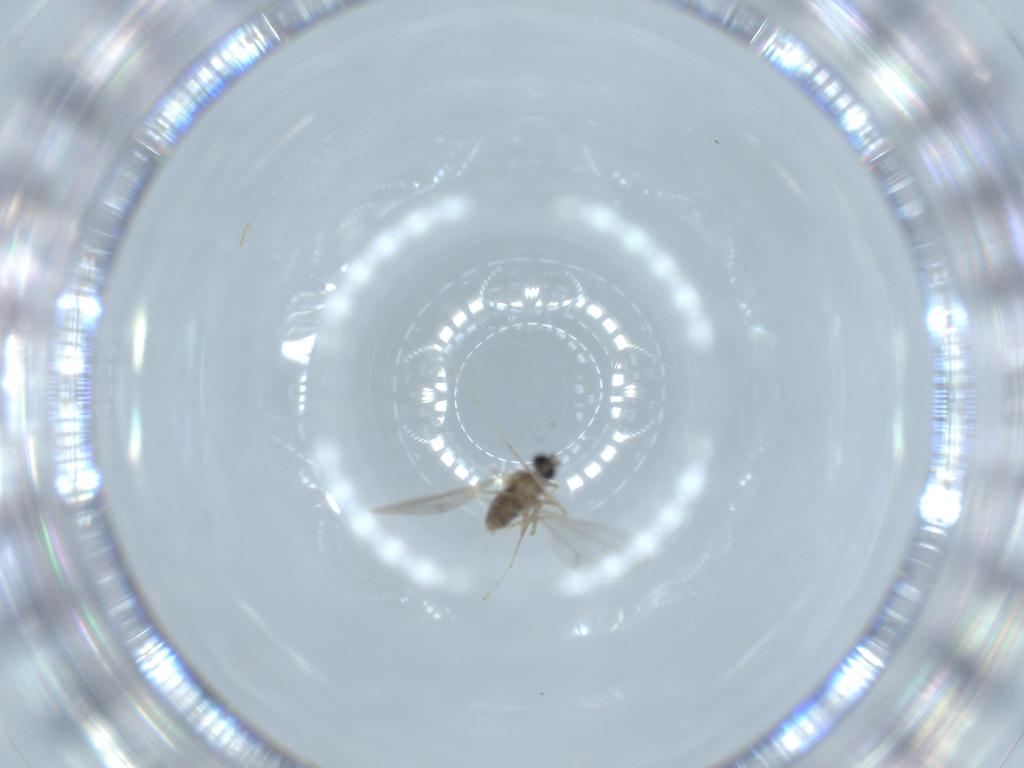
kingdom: Animalia
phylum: Arthropoda
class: Insecta
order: Diptera
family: Cecidomyiidae
